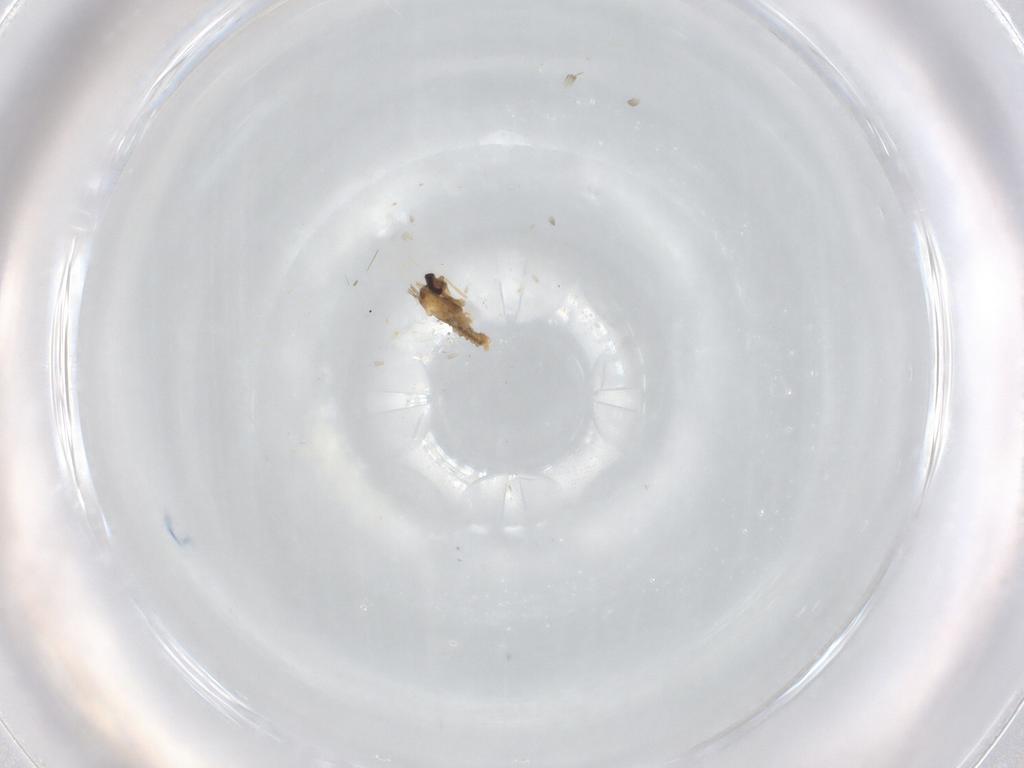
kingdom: Animalia
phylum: Arthropoda
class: Insecta
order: Diptera
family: Cecidomyiidae
